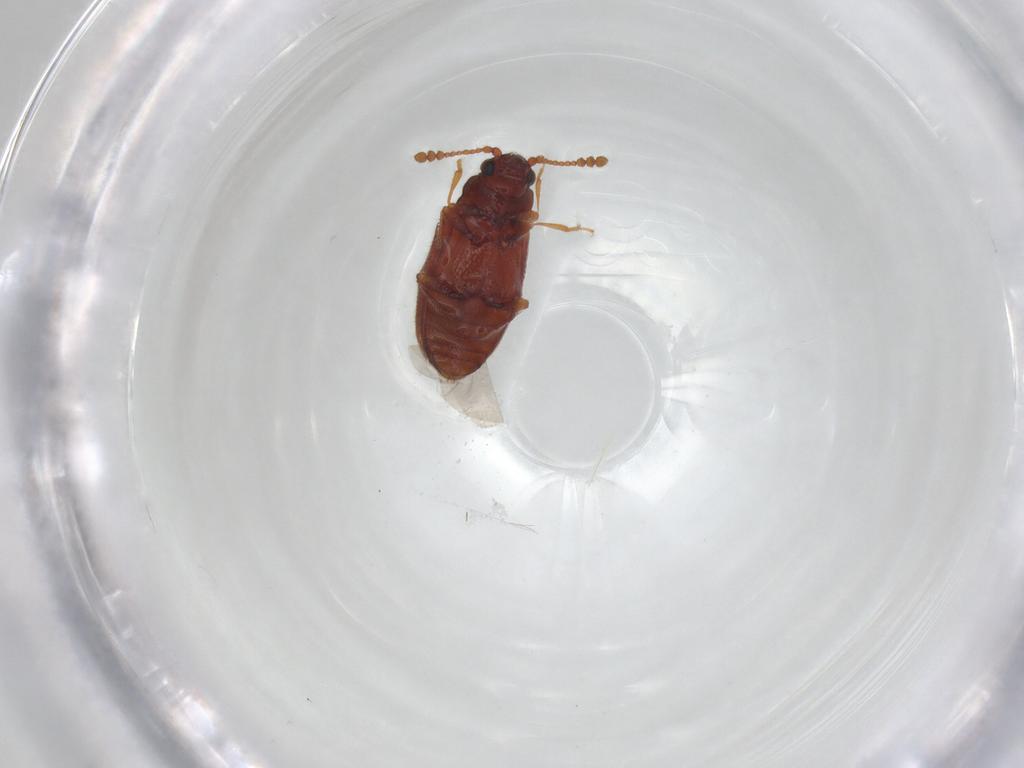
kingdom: Animalia
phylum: Arthropoda
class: Insecta
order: Coleoptera
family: Cryptophagidae
